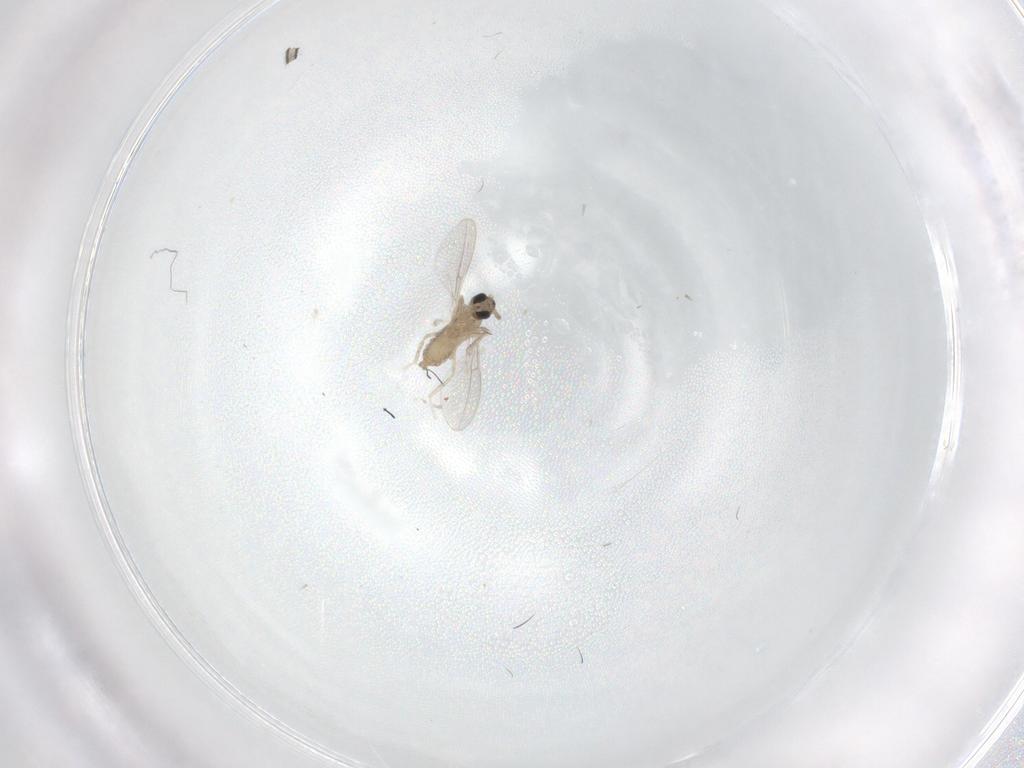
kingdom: Animalia
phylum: Arthropoda
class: Insecta
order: Diptera
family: Cecidomyiidae
